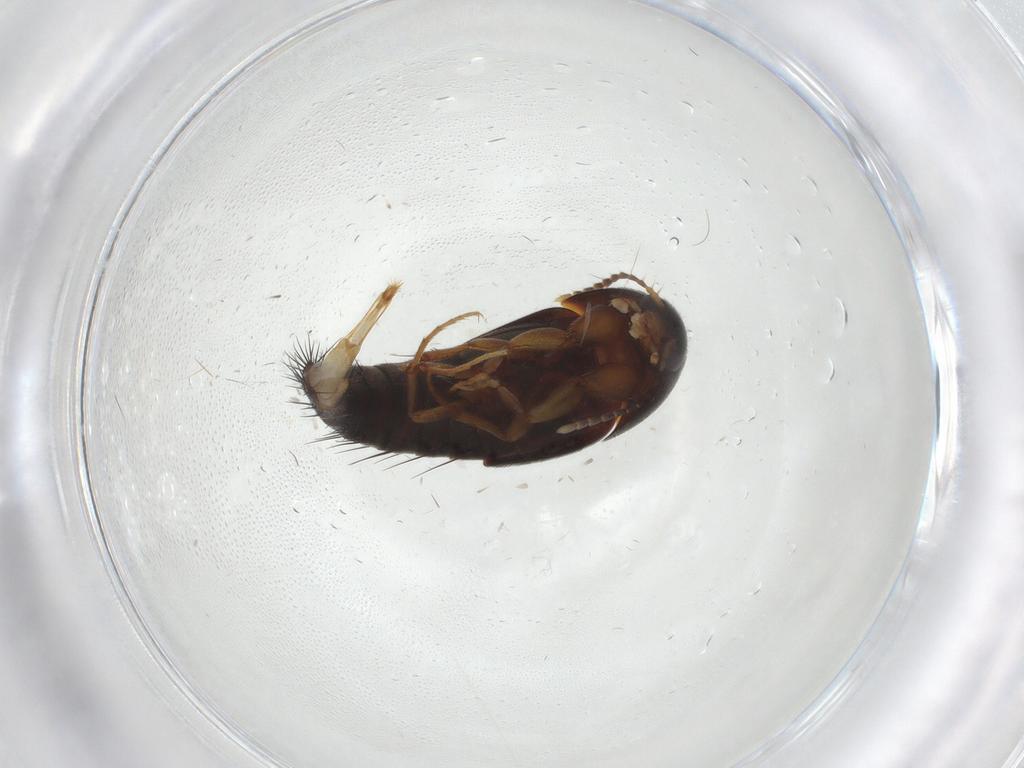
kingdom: Animalia
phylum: Arthropoda
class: Insecta
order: Coleoptera
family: Staphylinidae
